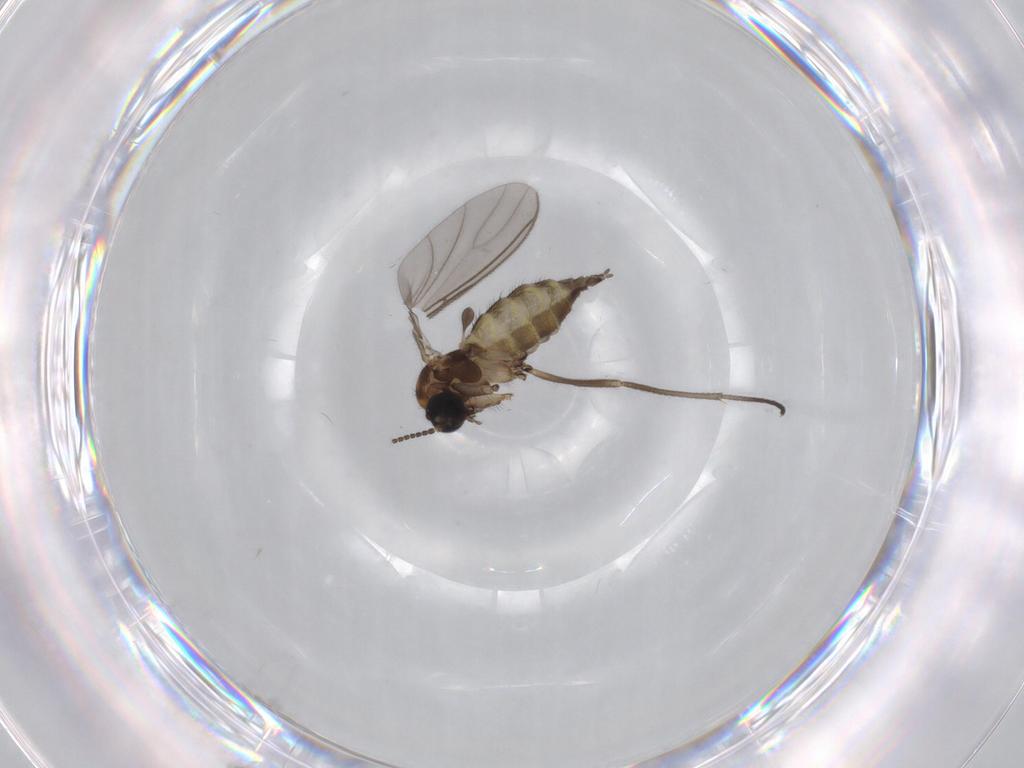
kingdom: Animalia
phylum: Arthropoda
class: Insecta
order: Diptera
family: Sciaridae
